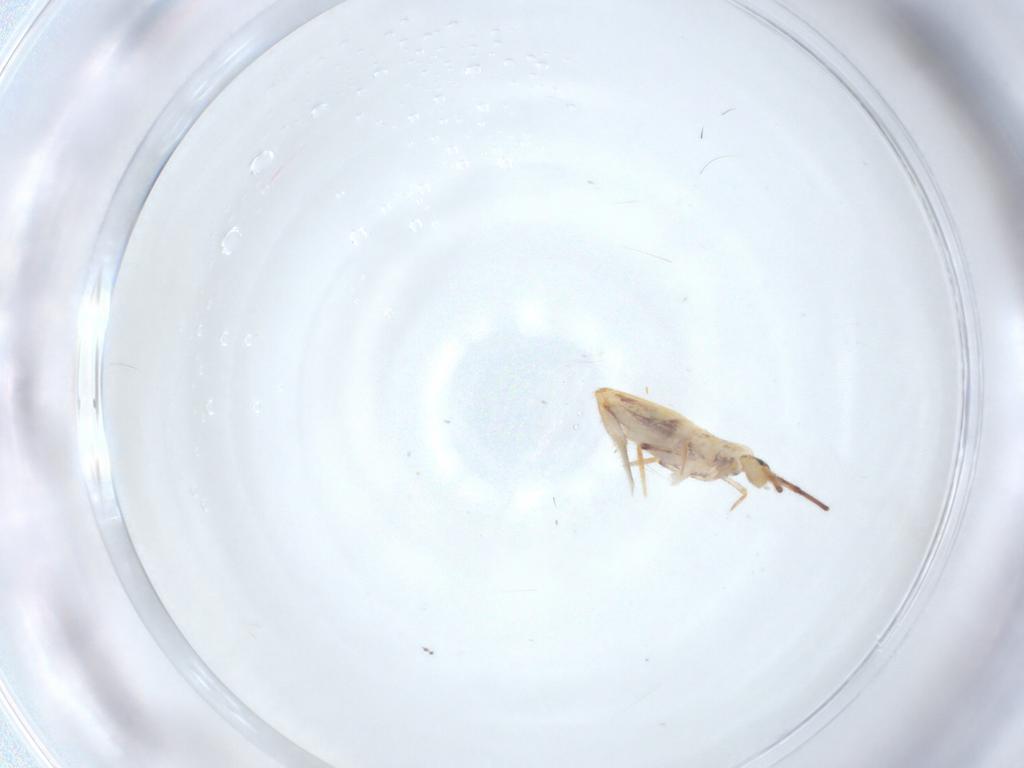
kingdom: Animalia
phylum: Arthropoda
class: Collembola
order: Poduromorpha
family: Hypogastruridae
